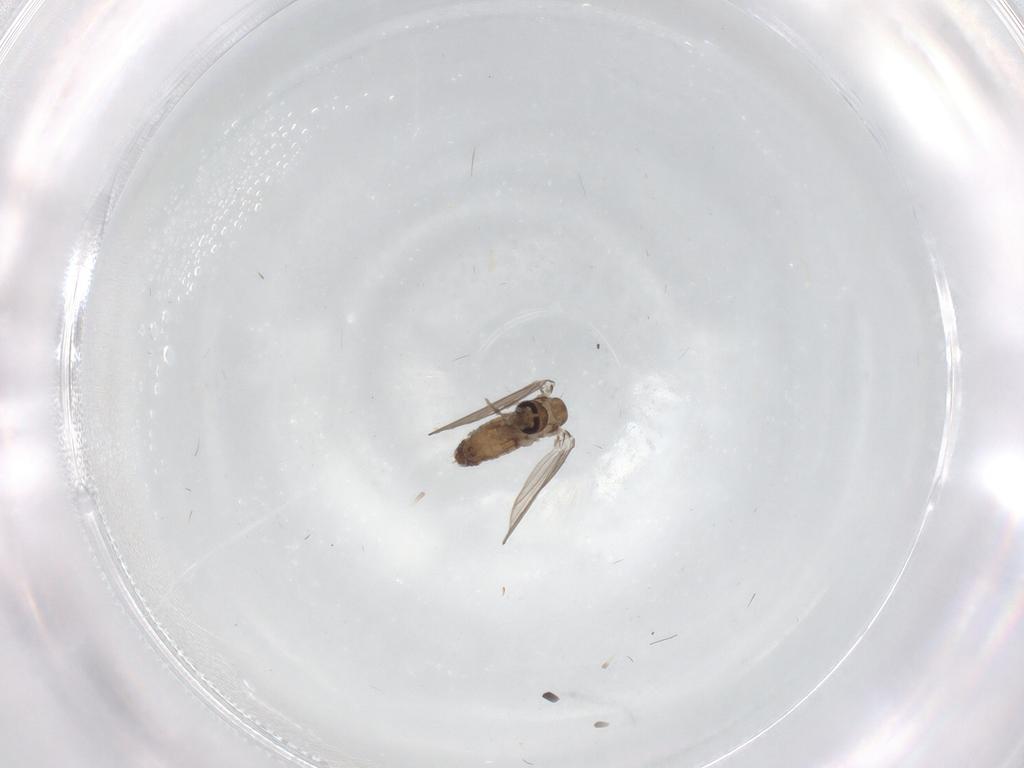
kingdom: Animalia
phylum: Arthropoda
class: Insecta
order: Diptera
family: Sciaridae
